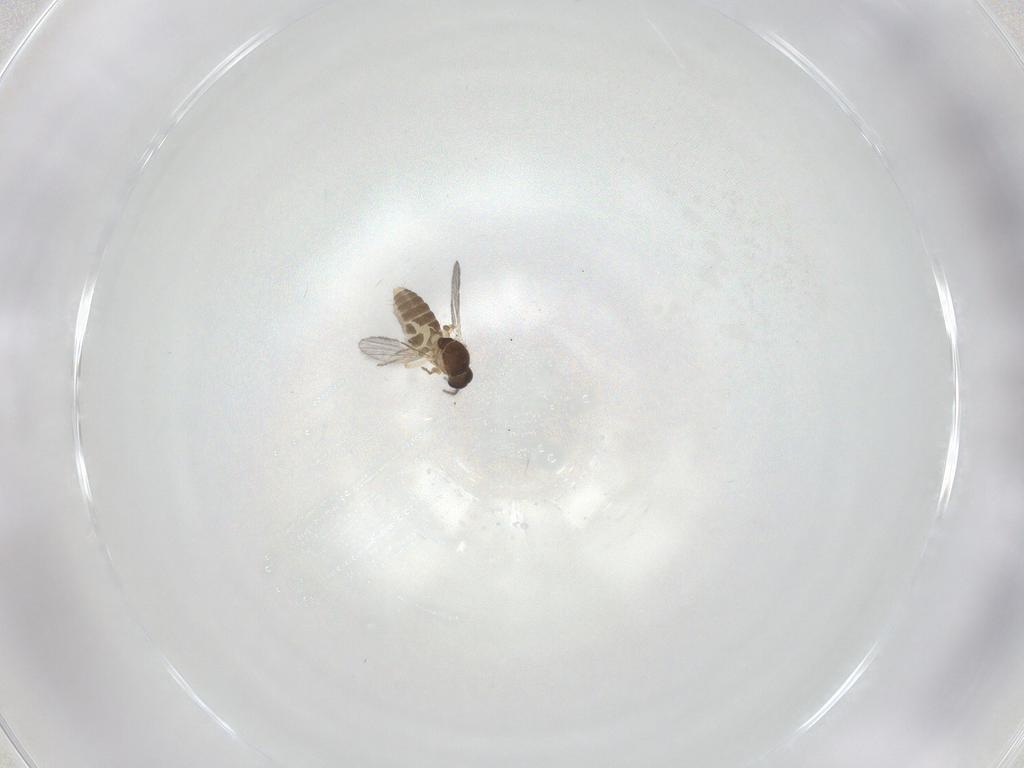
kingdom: Animalia
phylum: Arthropoda
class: Insecta
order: Diptera
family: Ceratopogonidae
